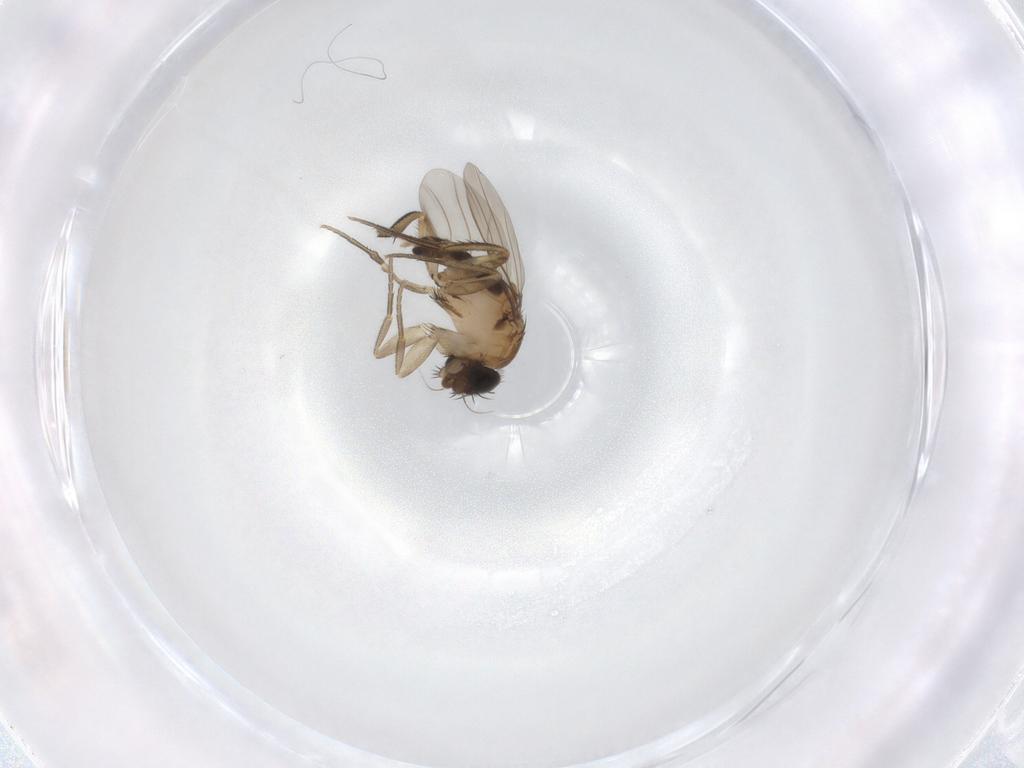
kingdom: Animalia
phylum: Arthropoda
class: Insecta
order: Diptera
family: Phoridae
